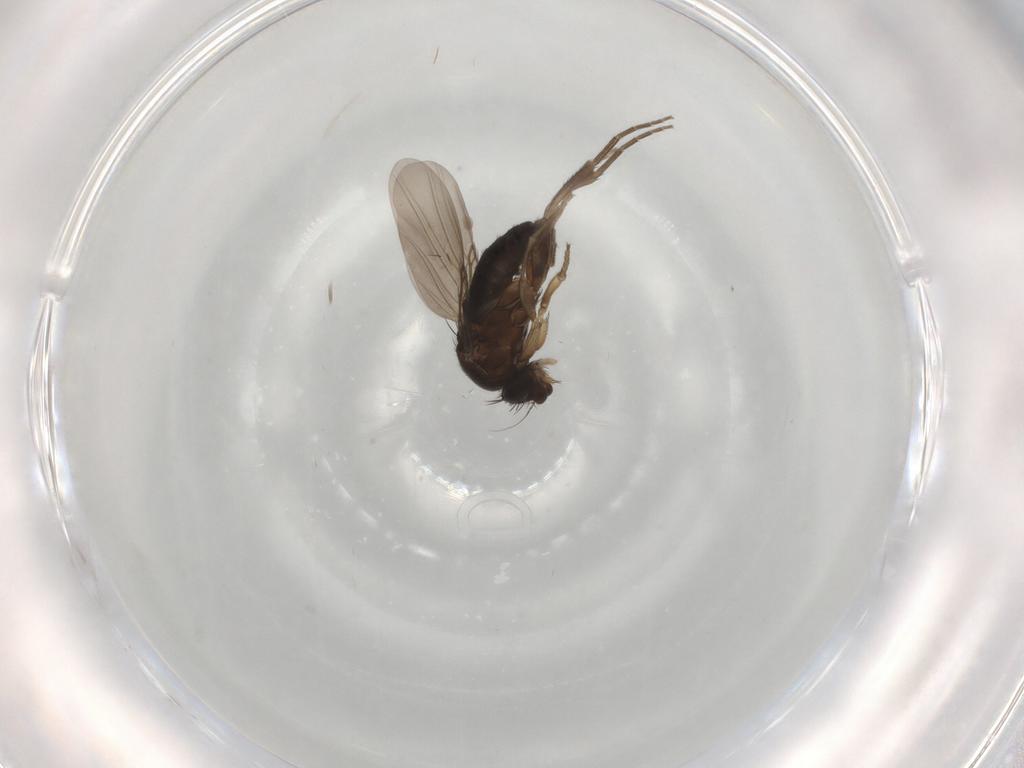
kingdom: Animalia
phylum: Arthropoda
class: Insecta
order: Diptera
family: Phoridae
